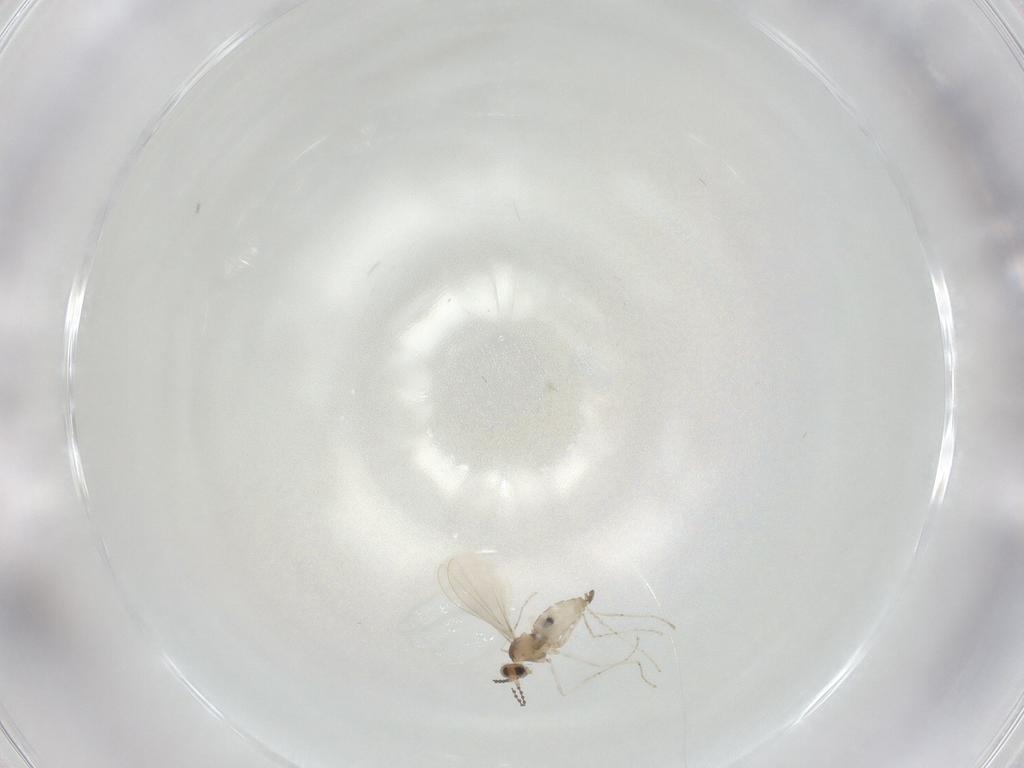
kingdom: Animalia
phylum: Arthropoda
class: Insecta
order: Diptera
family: Cecidomyiidae
